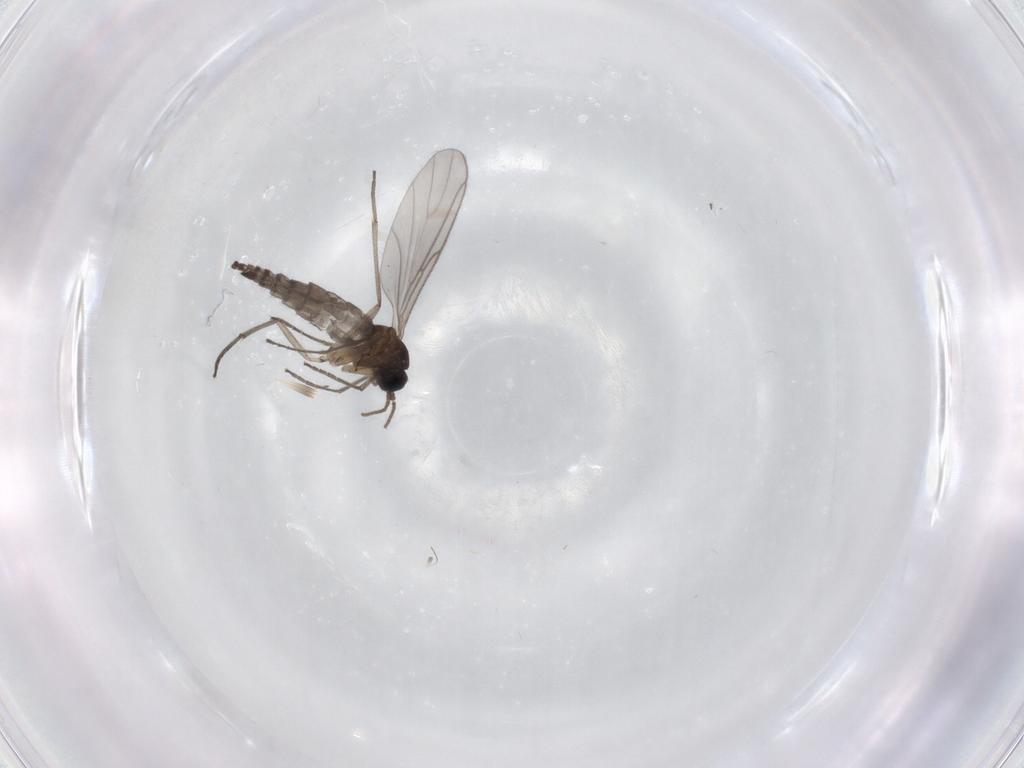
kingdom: Animalia
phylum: Arthropoda
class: Insecta
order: Diptera
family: Sciaridae
